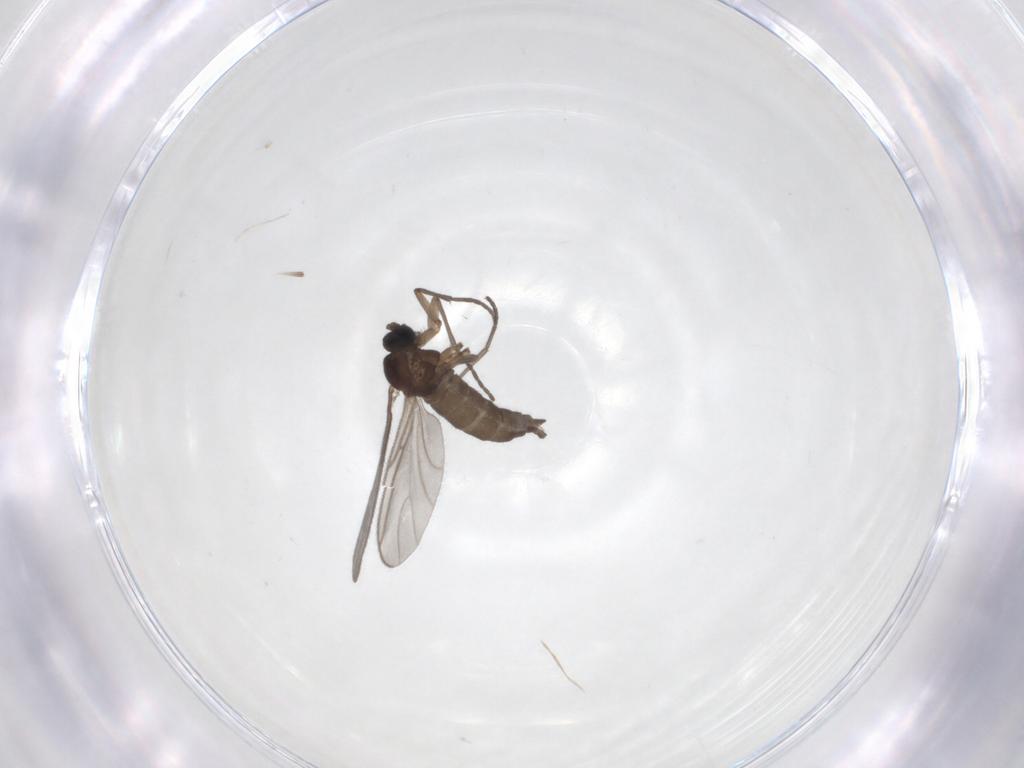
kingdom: Animalia
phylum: Arthropoda
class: Insecta
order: Diptera
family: Sciaridae
